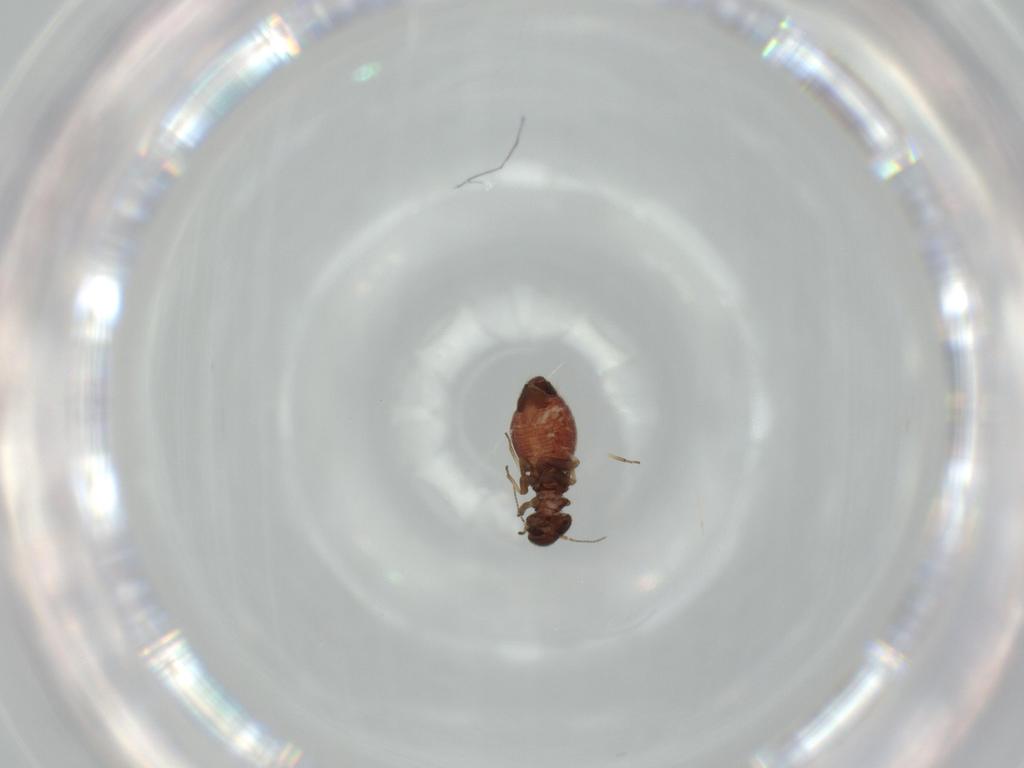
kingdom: Animalia
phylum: Arthropoda
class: Insecta
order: Psocodea
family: Archipsocidae
